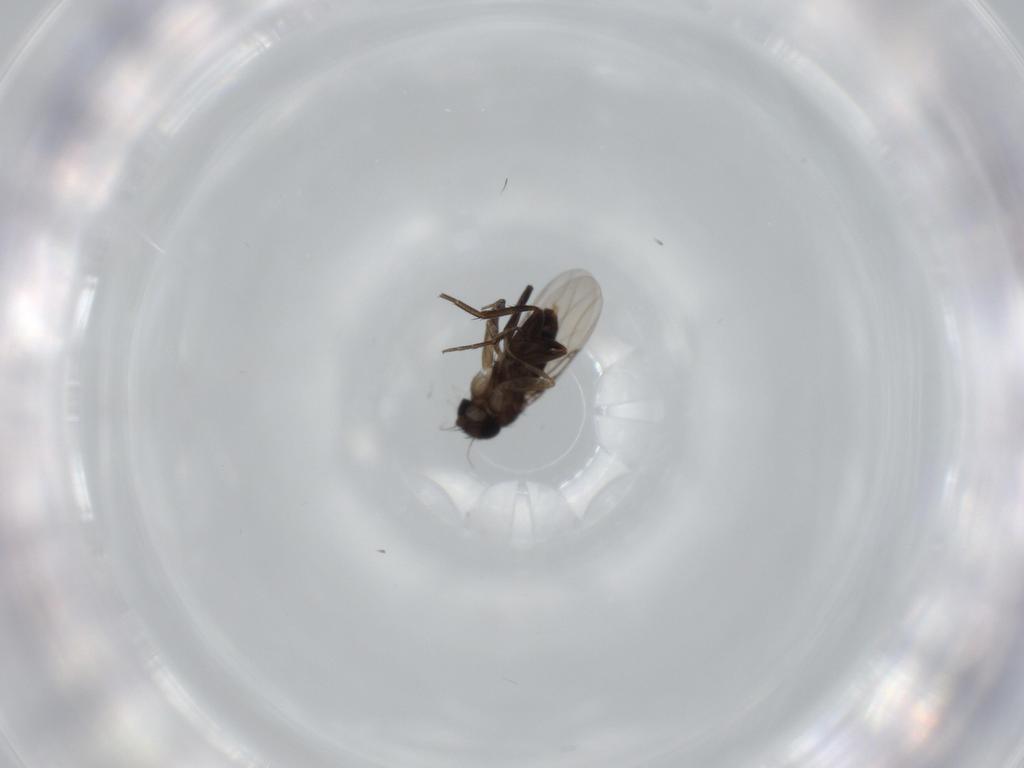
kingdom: Animalia
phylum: Arthropoda
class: Insecta
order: Diptera
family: Phoridae
